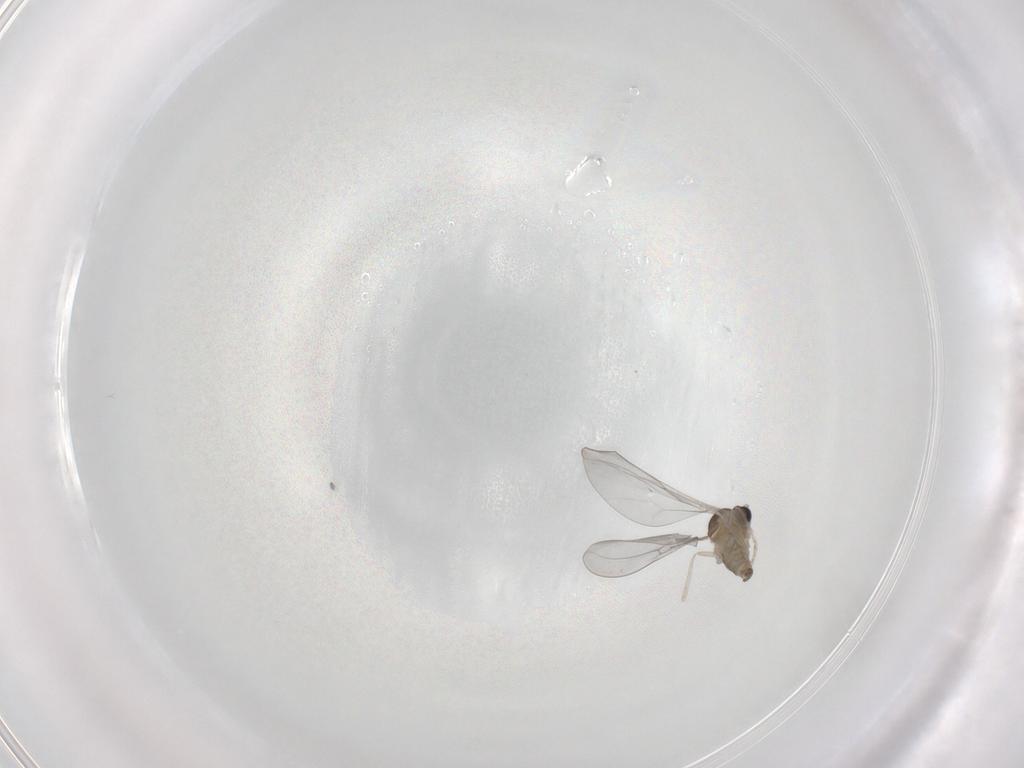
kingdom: Animalia
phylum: Arthropoda
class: Insecta
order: Diptera
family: Cecidomyiidae
